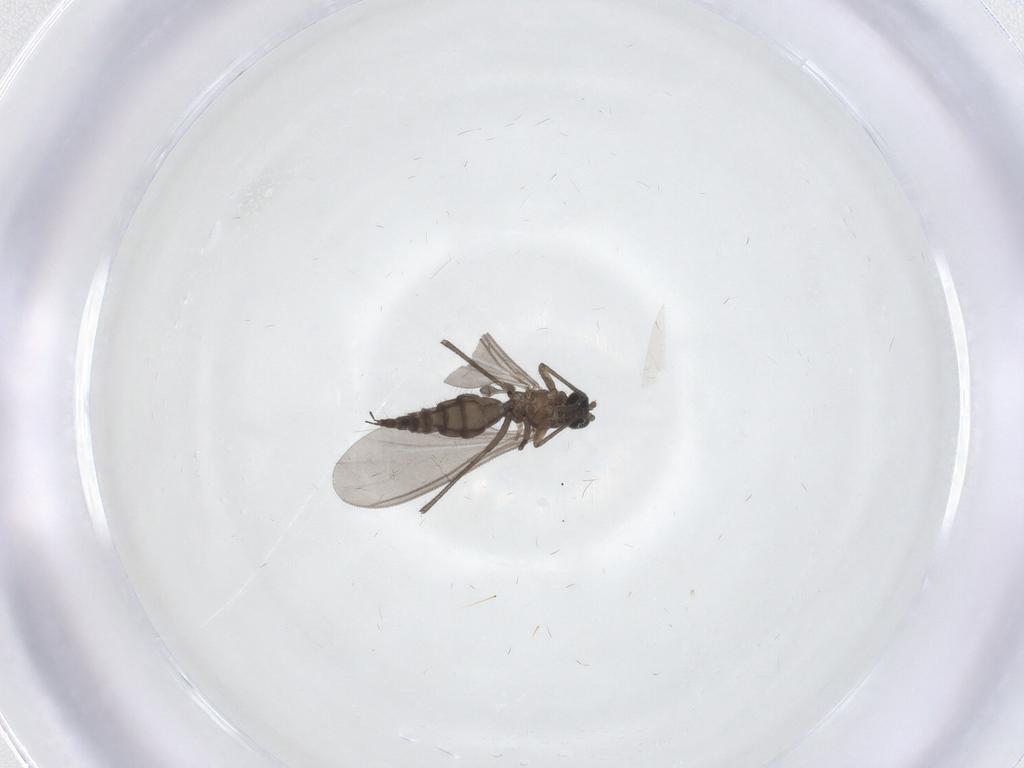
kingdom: Animalia
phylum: Arthropoda
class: Insecta
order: Diptera
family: Sciaridae
